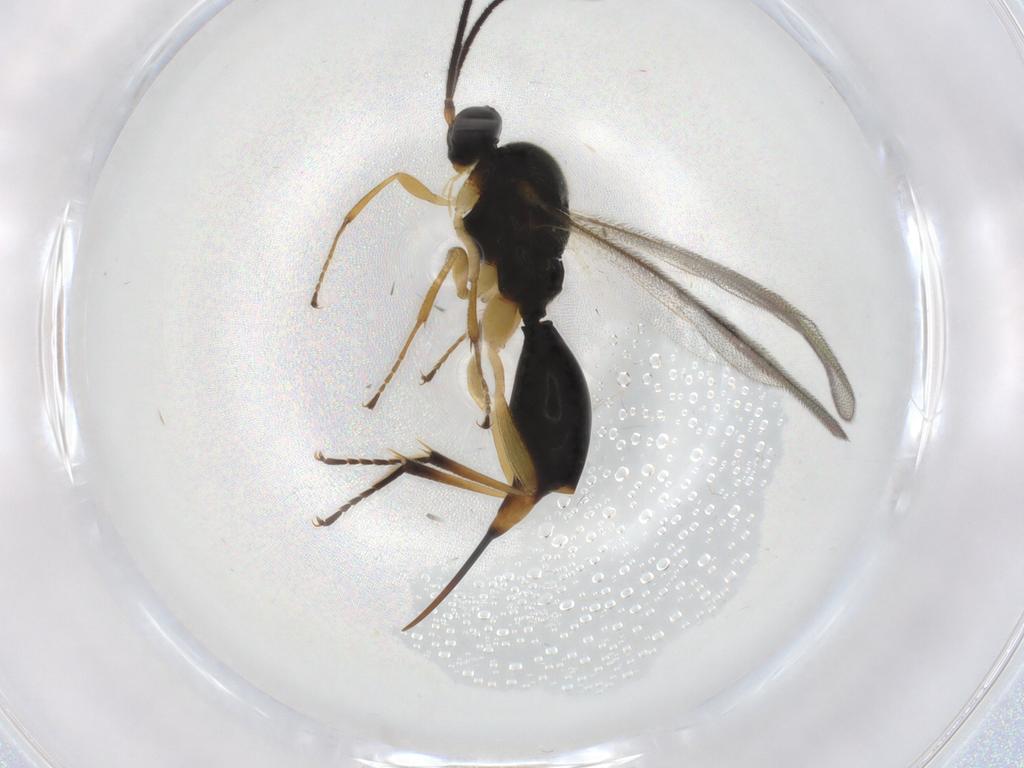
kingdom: Animalia
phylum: Arthropoda
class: Insecta
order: Hymenoptera
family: Proctotrupidae
